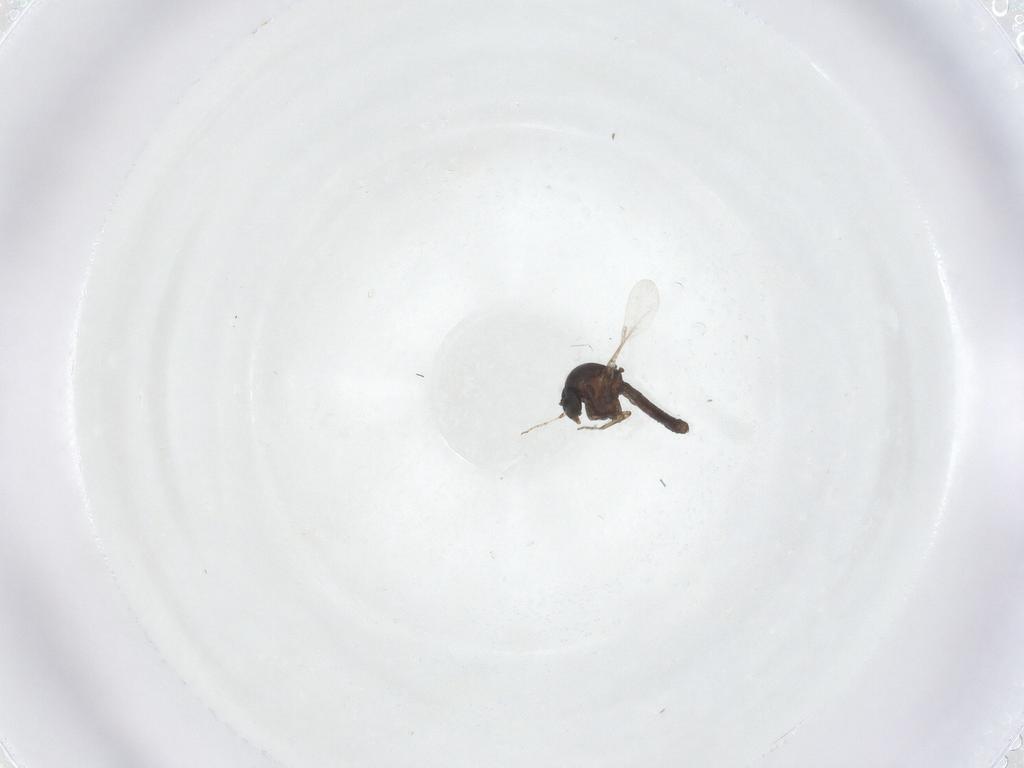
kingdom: Animalia
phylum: Arthropoda
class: Insecta
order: Diptera
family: Ceratopogonidae
